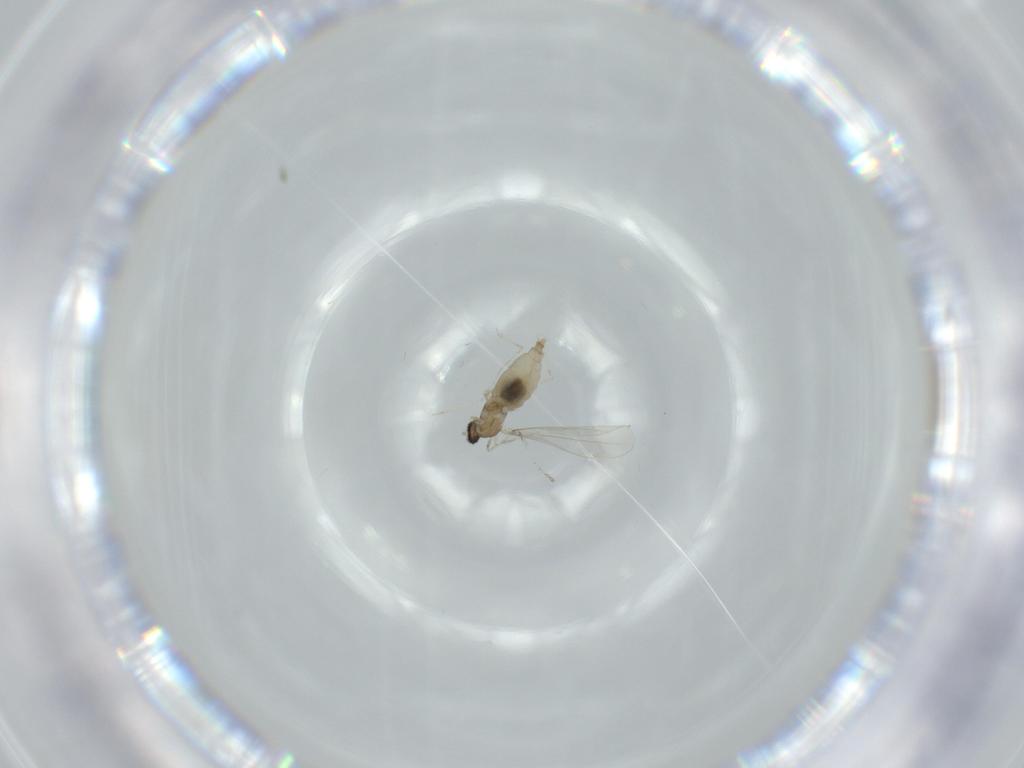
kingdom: Animalia
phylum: Arthropoda
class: Insecta
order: Diptera
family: Cecidomyiidae
